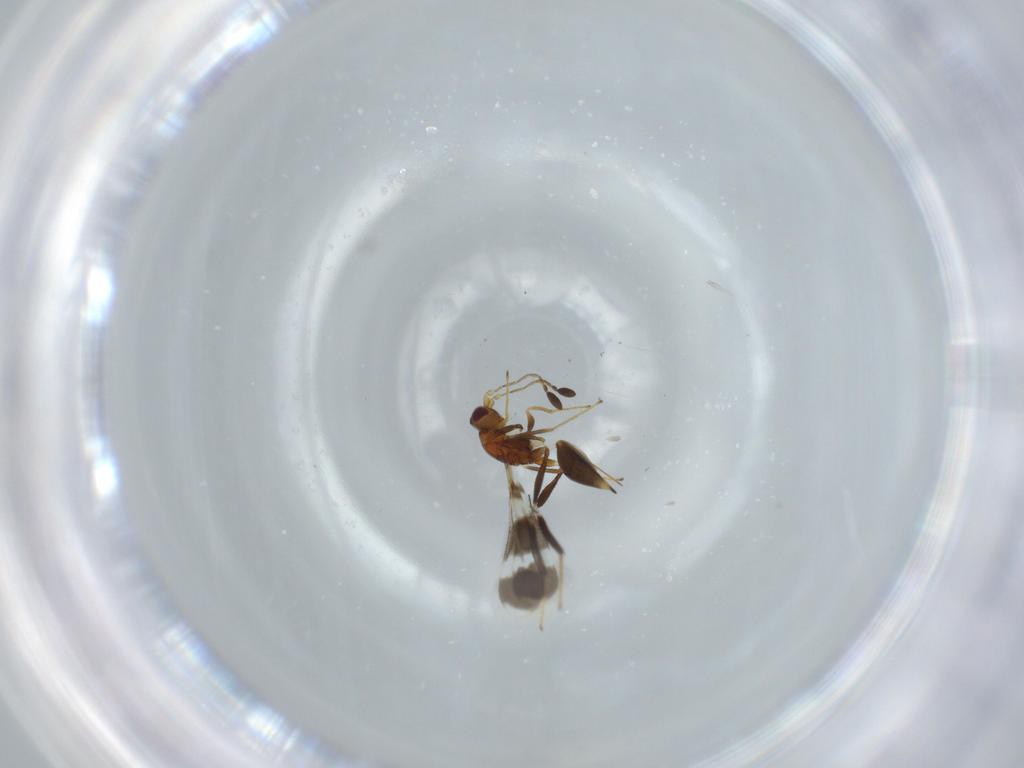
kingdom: Animalia
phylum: Arthropoda
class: Insecta
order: Hymenoptera
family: Mymaridae
